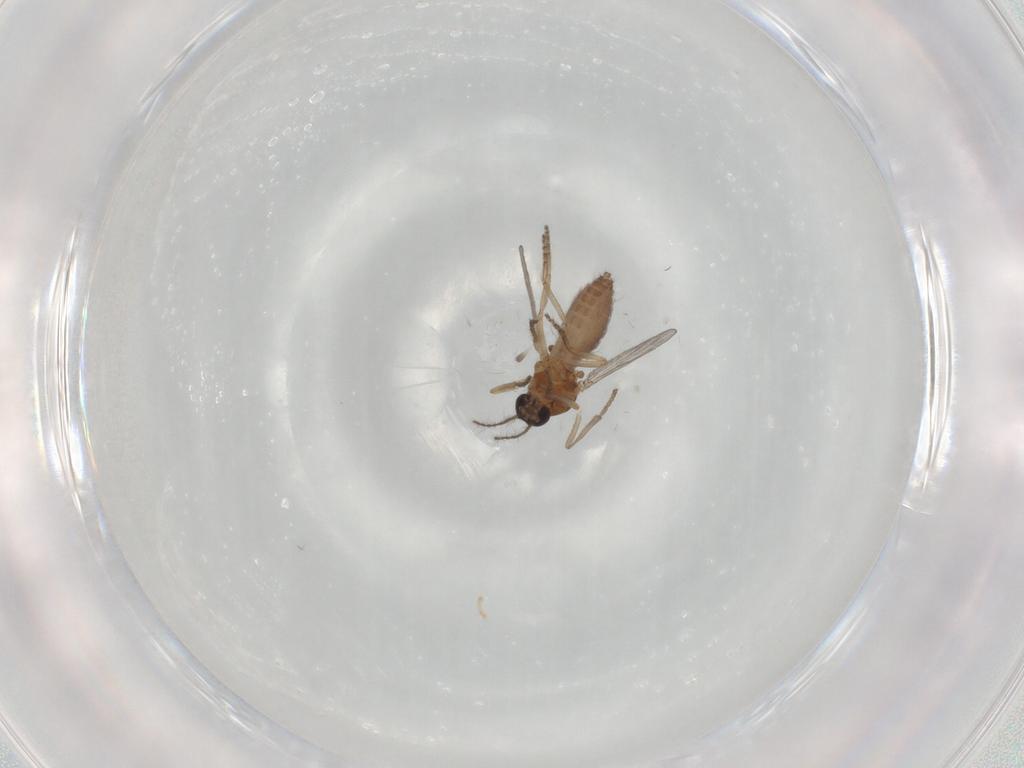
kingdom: Animalia
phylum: Arthropoda
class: Insecta
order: Diptera
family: Psychodidae
